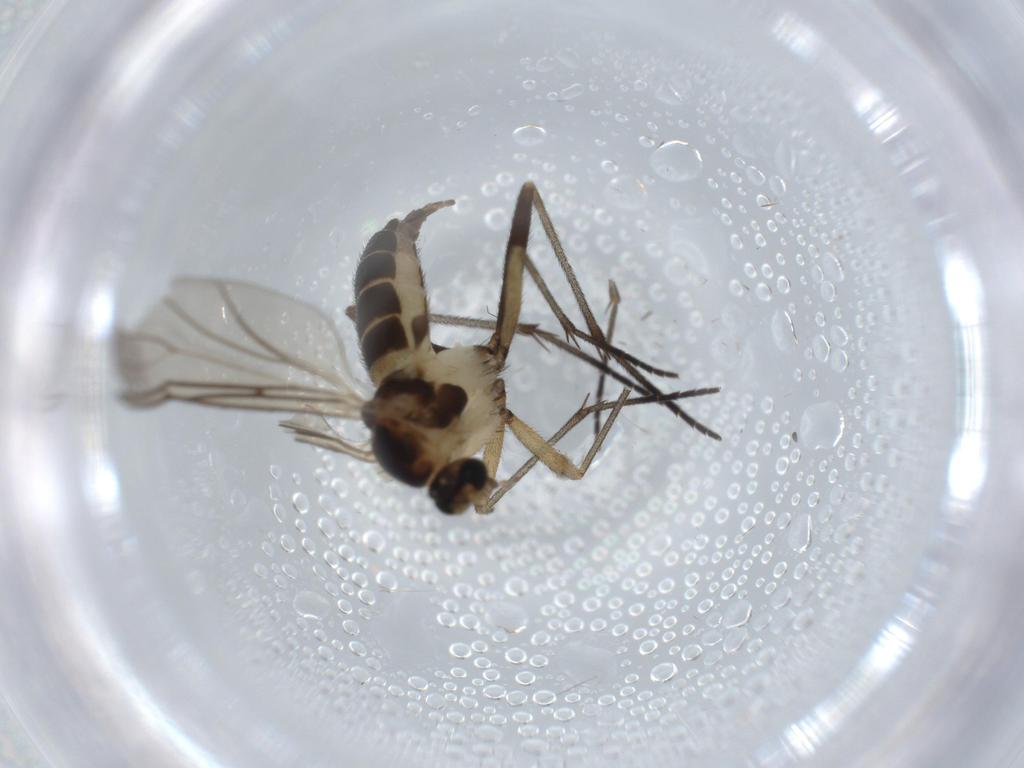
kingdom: Animalia
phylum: Arthropoda
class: Insecta
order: Diptera
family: Sciaridae
